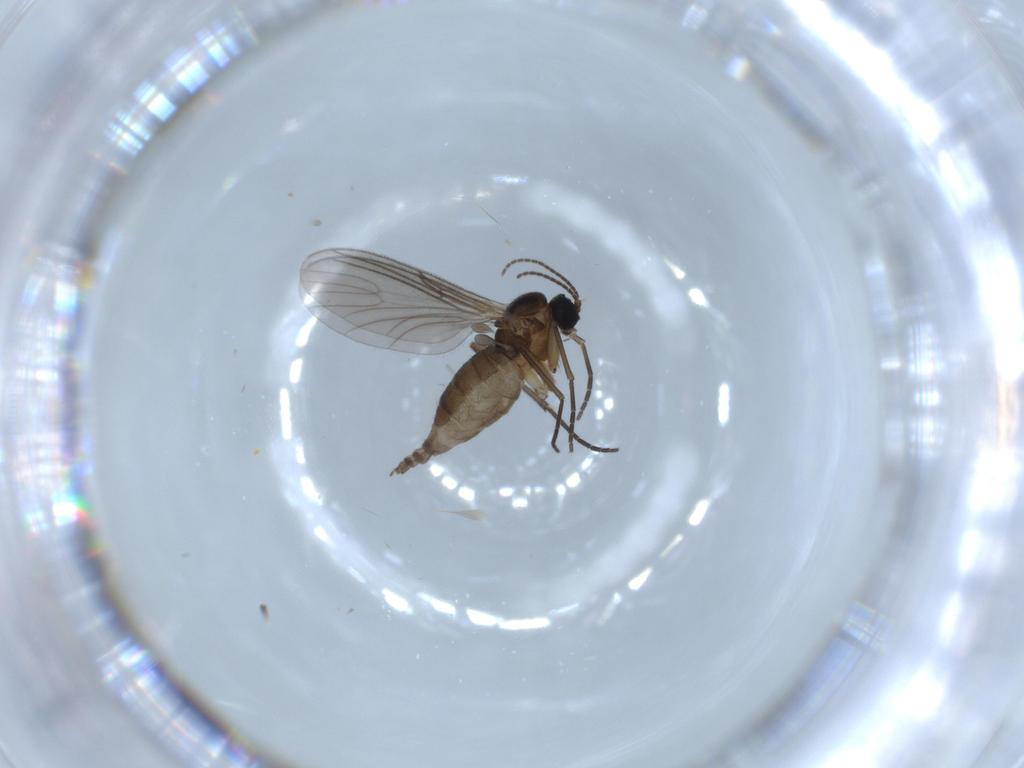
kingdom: Animalia
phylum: Arthropoda
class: Insecta
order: Diptera
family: Sciaridae
